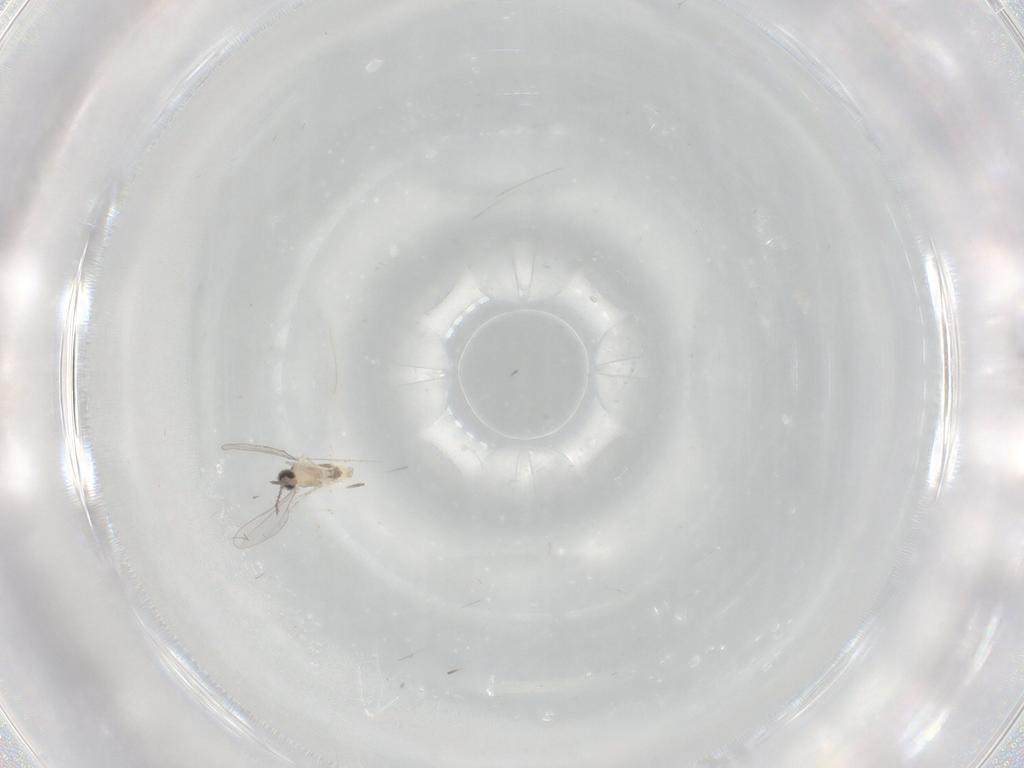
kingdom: Animalia
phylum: Arthropoda
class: Insecta
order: Diptera
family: Cecidomyiidae
